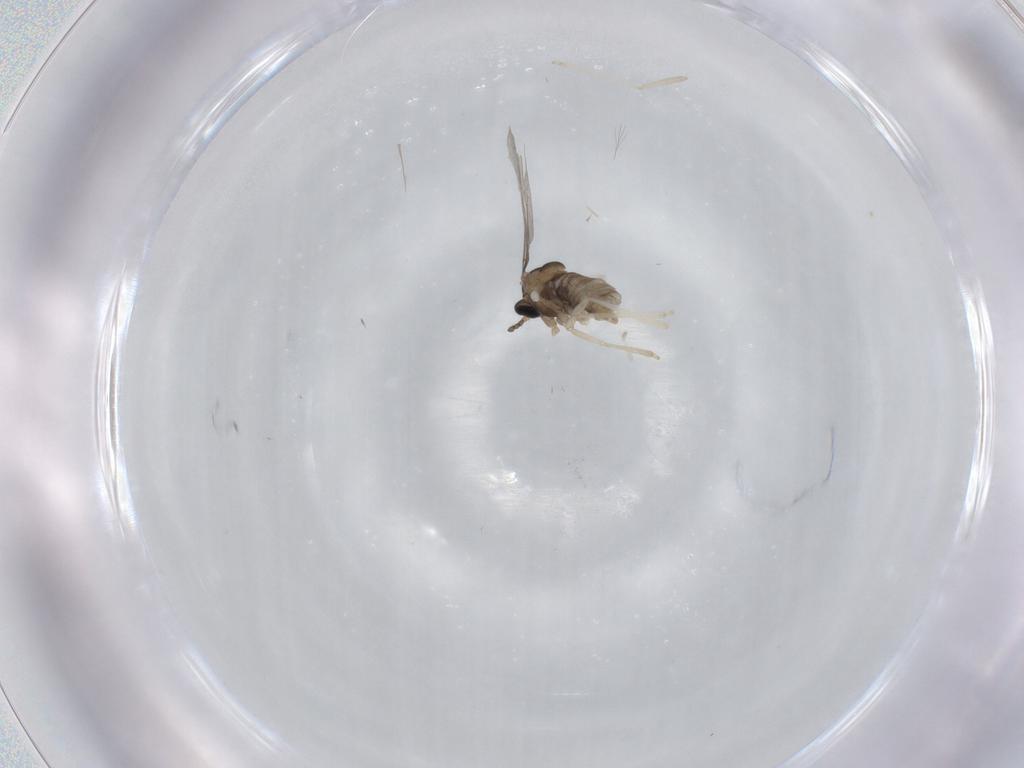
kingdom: Animalia
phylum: Arthropoda
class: Insecta
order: Diptera
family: Cecidomyiidae
